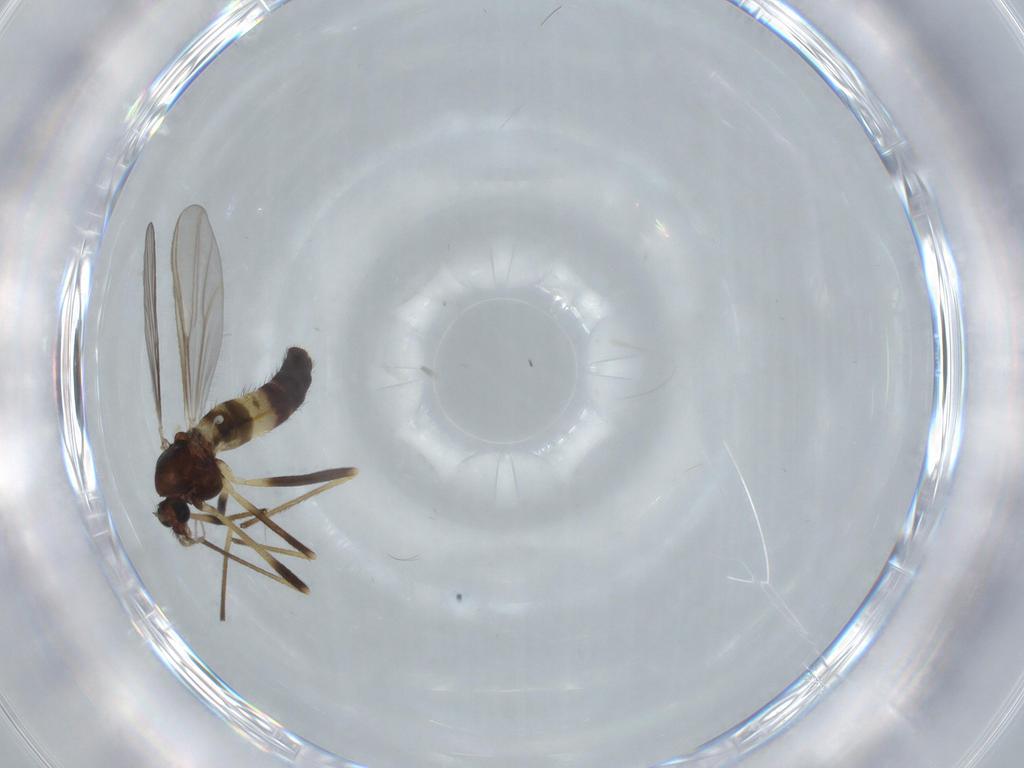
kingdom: Animalia
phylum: Arthropoda
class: Insecta
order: Diptera
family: Chironomidae
